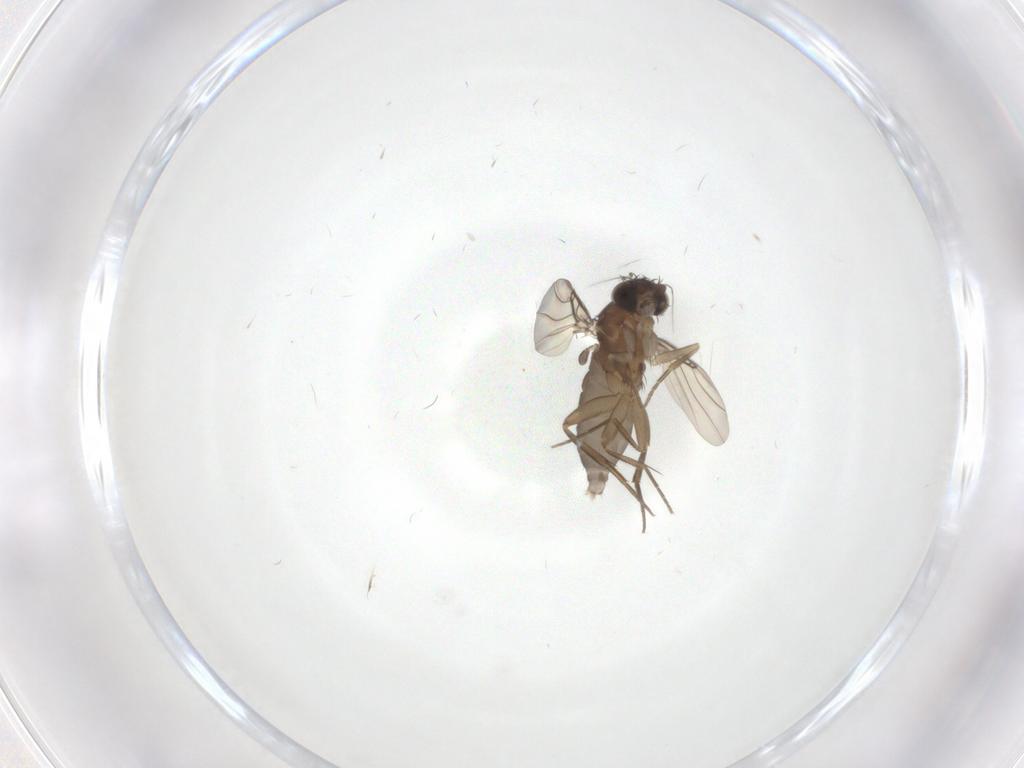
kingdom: Animalia
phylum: Arthropoda
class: Insecta
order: Diptera
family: Phoridae
